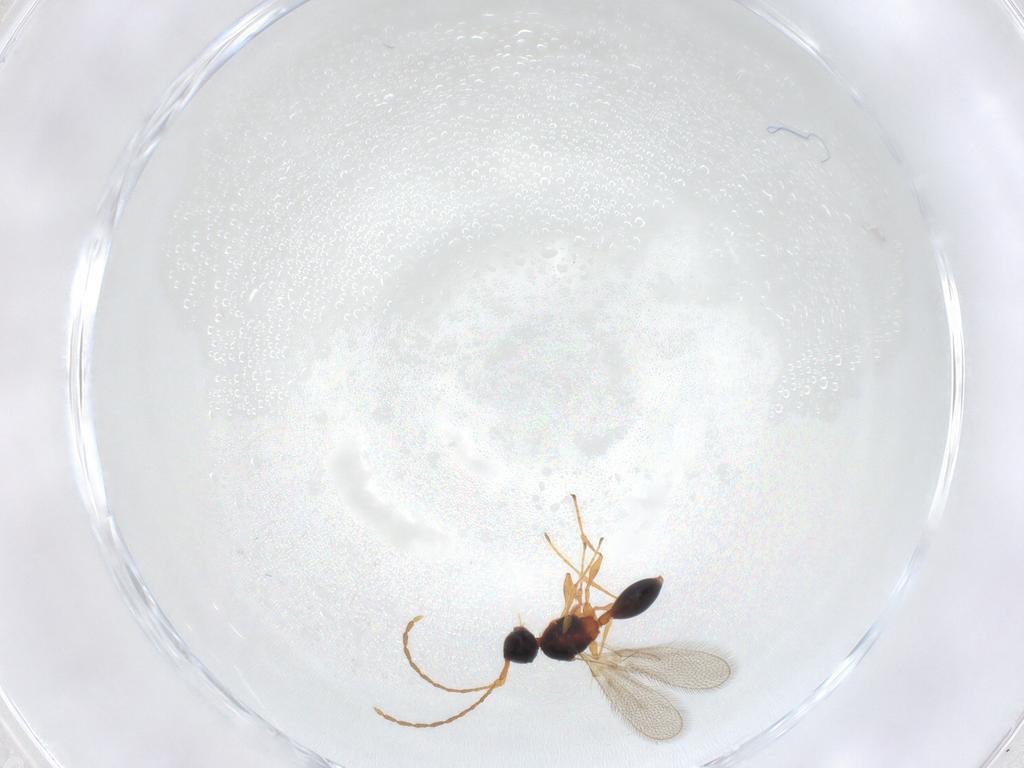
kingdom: Animalia
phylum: Arthropoda
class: Insecta
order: Hymenoptera
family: Diapriidae
